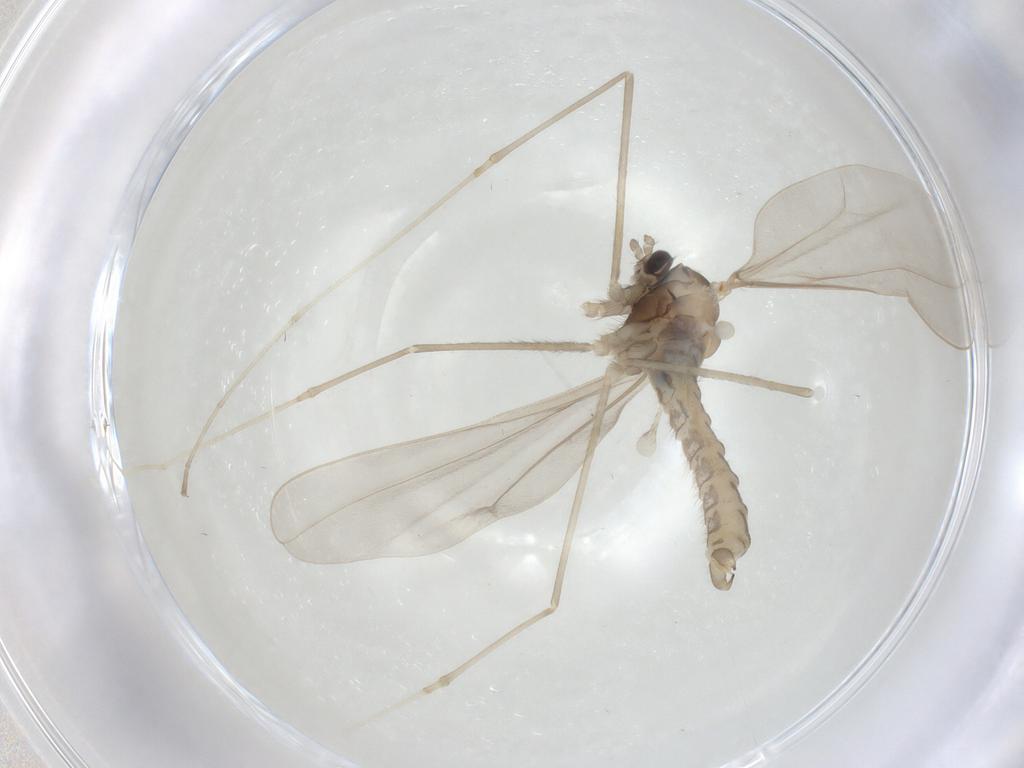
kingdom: Animalia
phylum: Arthropoda
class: Insecta
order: Diptera
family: Cecidomyiidae
